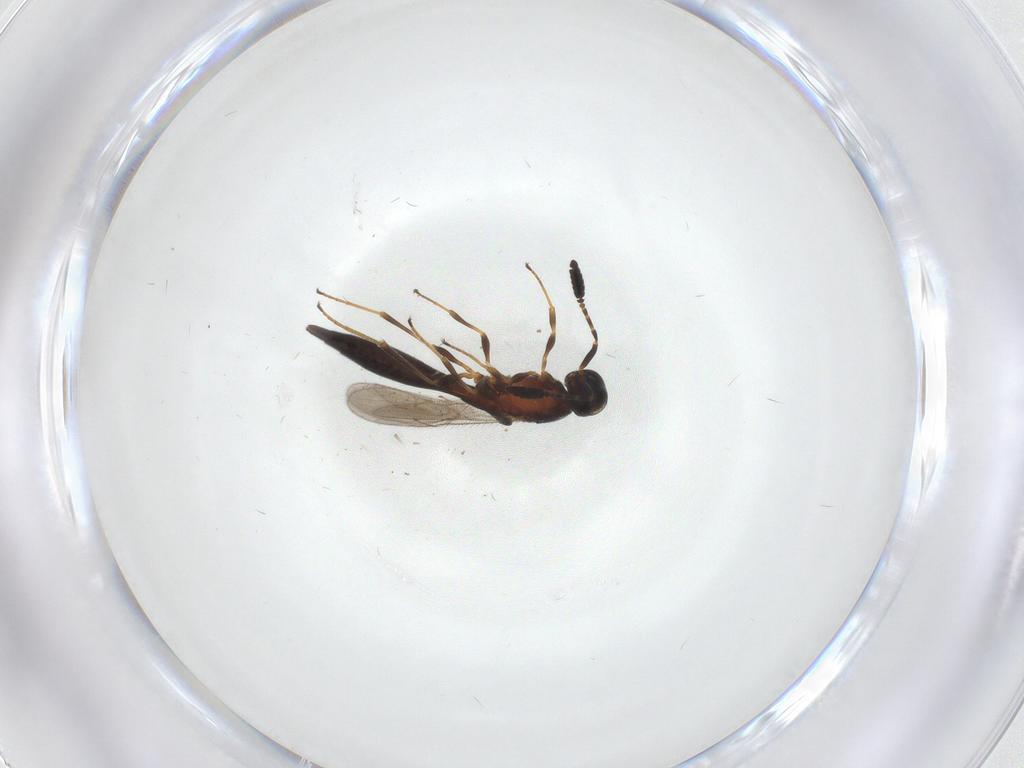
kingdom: Animalia
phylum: Arthropoda
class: Insecta
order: Hymenoptera
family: Scelionidae
